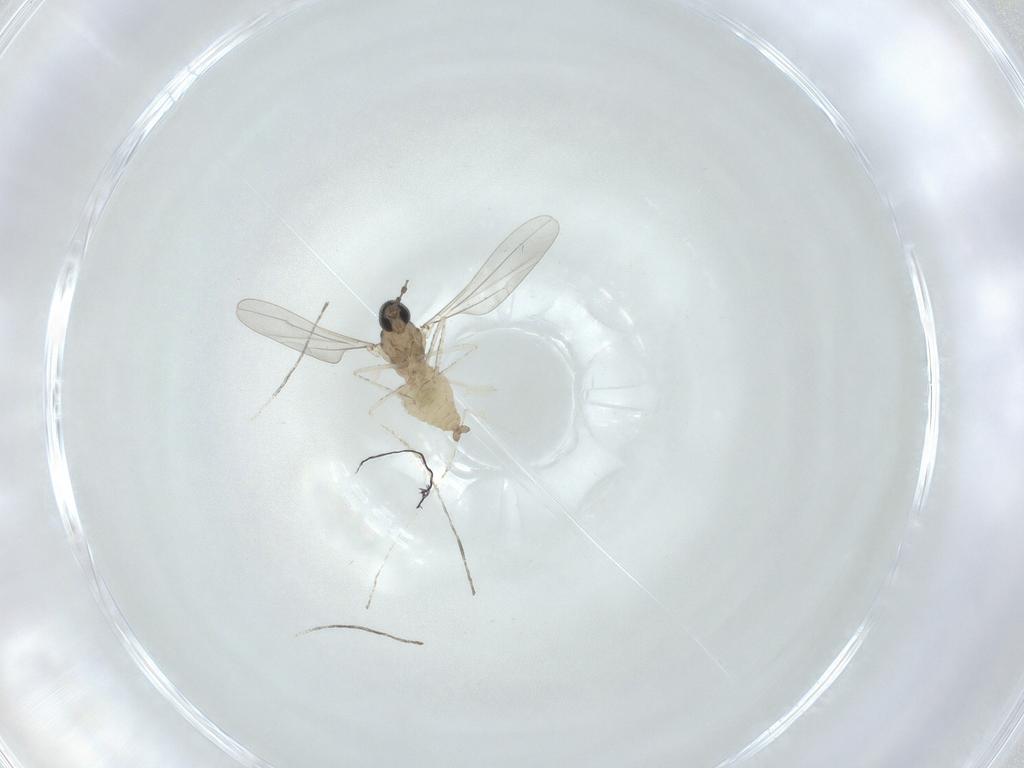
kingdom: Animalia
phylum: Arthropoda
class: Insecta
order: Diptera
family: Cecidomyiidae
